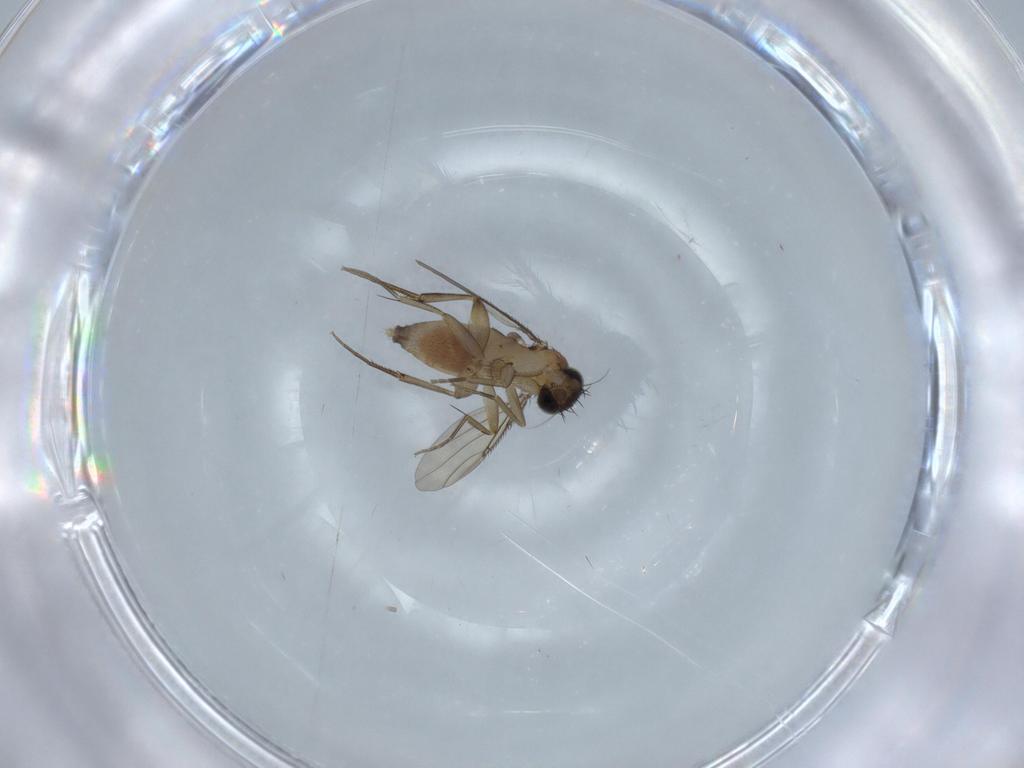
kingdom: Animalia
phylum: Arthropoda
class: Insecta
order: Diptera
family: Phoridae
